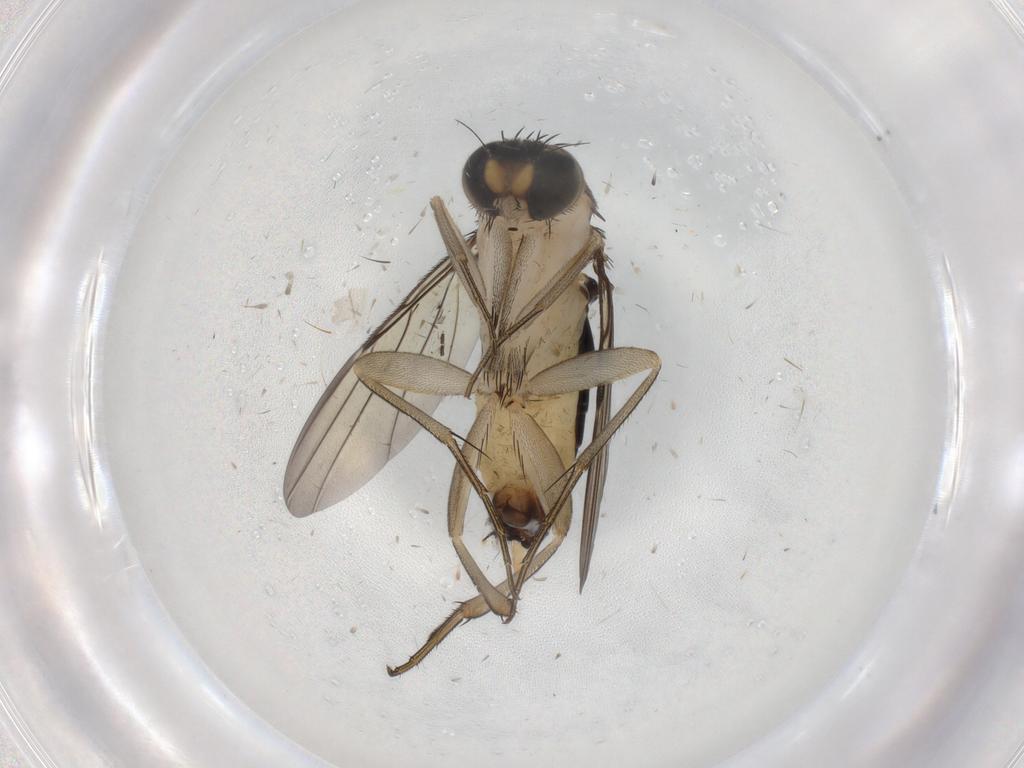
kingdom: Animalia
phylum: Arthropoda
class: Insecta
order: Diptera
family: Phoridae
